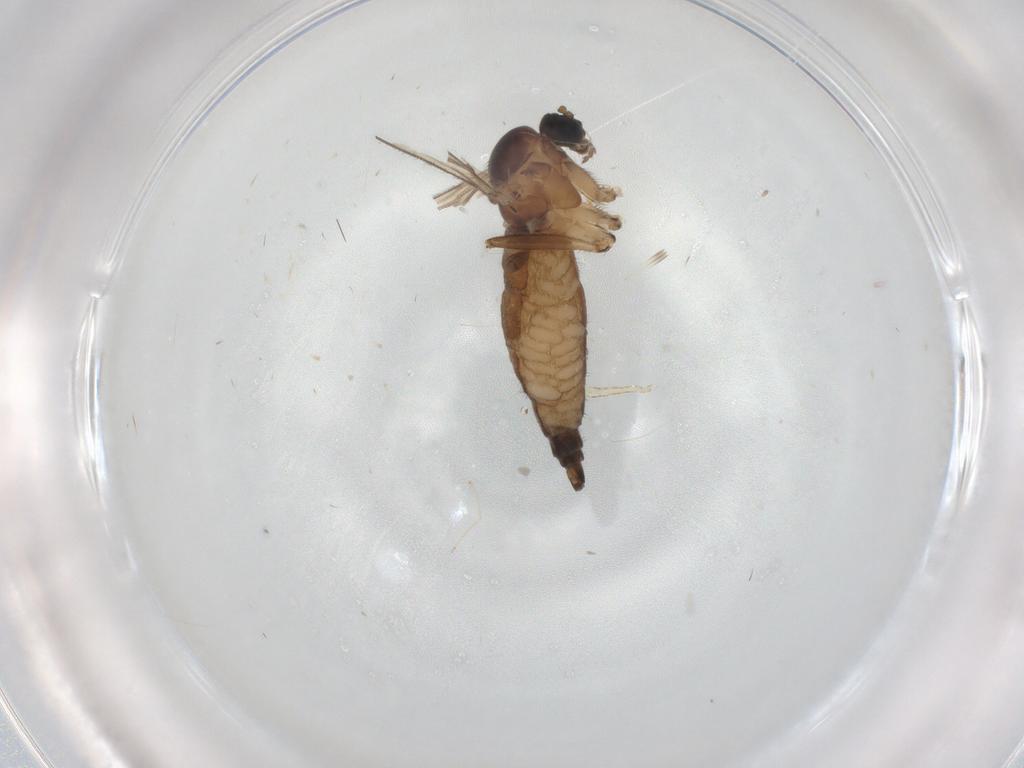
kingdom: Animalia
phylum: Arthropoda
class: Insecta
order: Diptera
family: Sciaridae
